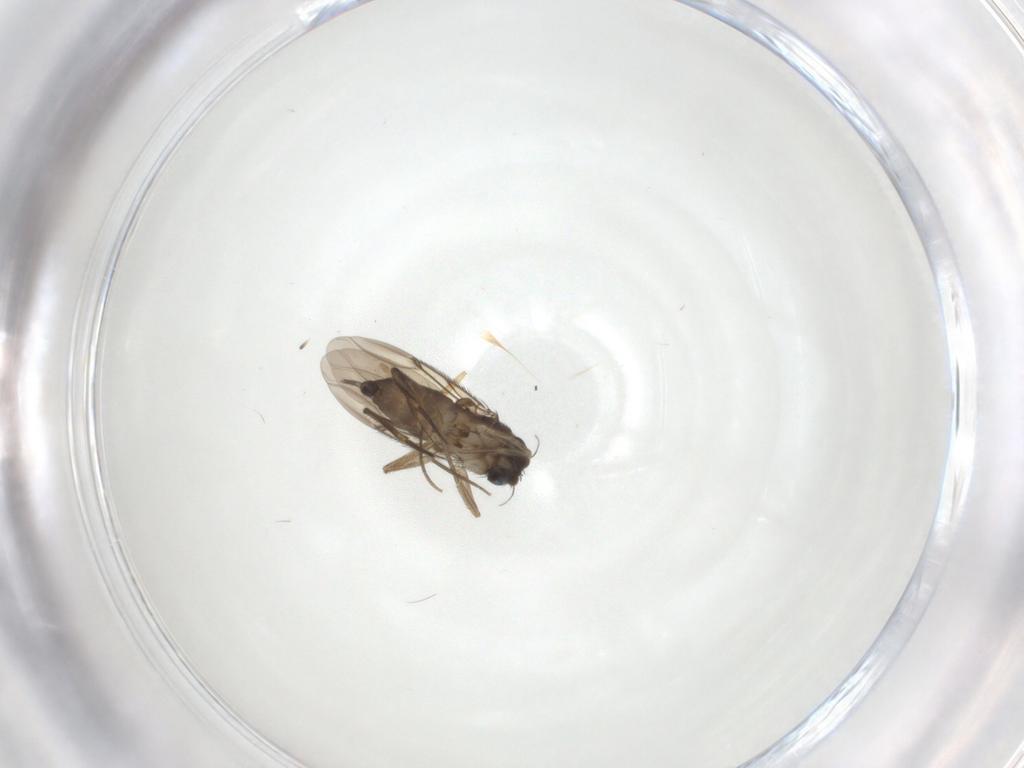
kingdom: Animalia
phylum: Arthropoda
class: Insecta
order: Diptera
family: Phoridae
